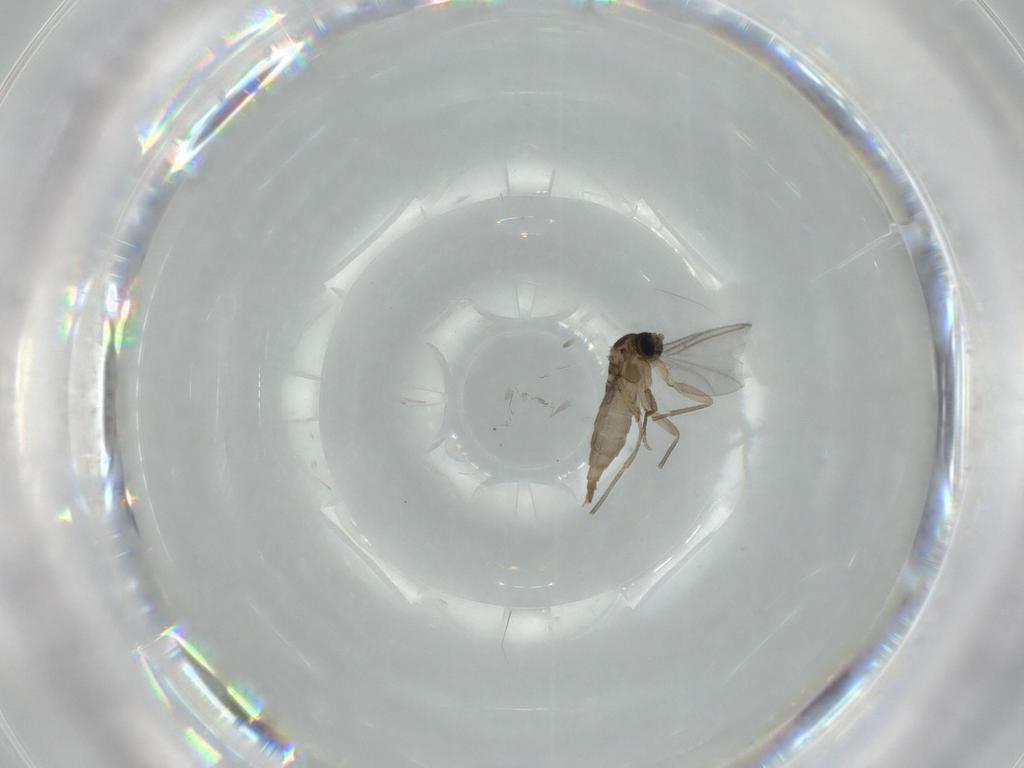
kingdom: Animalia
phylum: Arthropoda
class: Insecta
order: Diptera
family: Sciaridae
